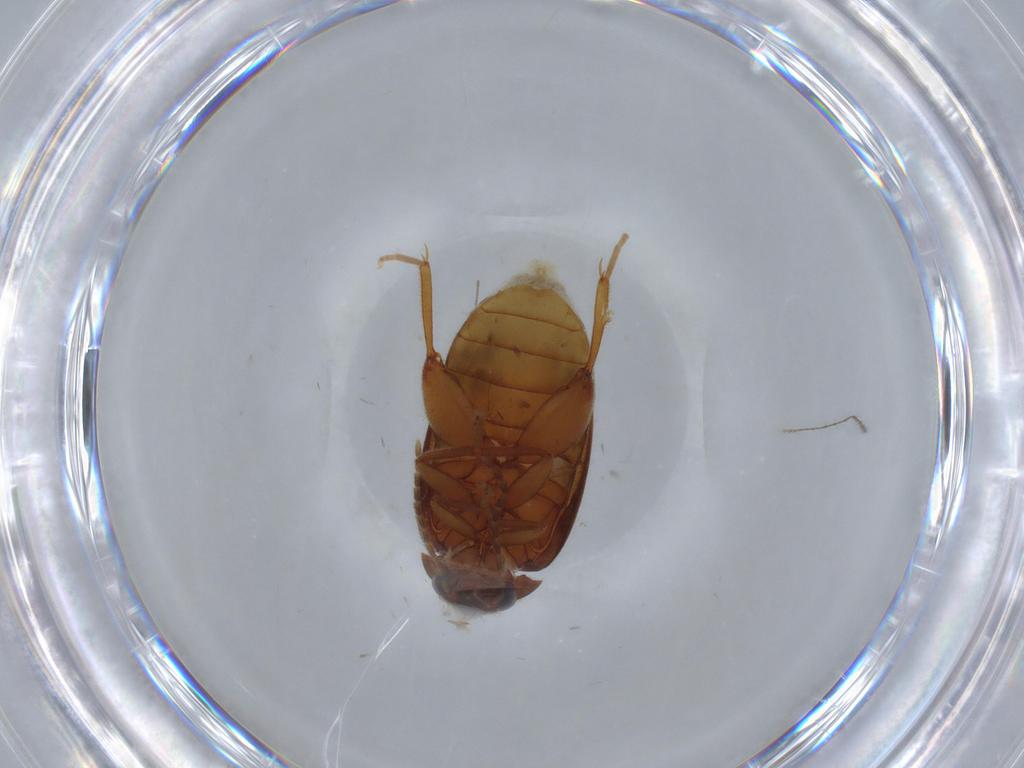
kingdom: Animalia
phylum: Arthropoda
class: Insecta
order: Coleoptera
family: Scirtidae
